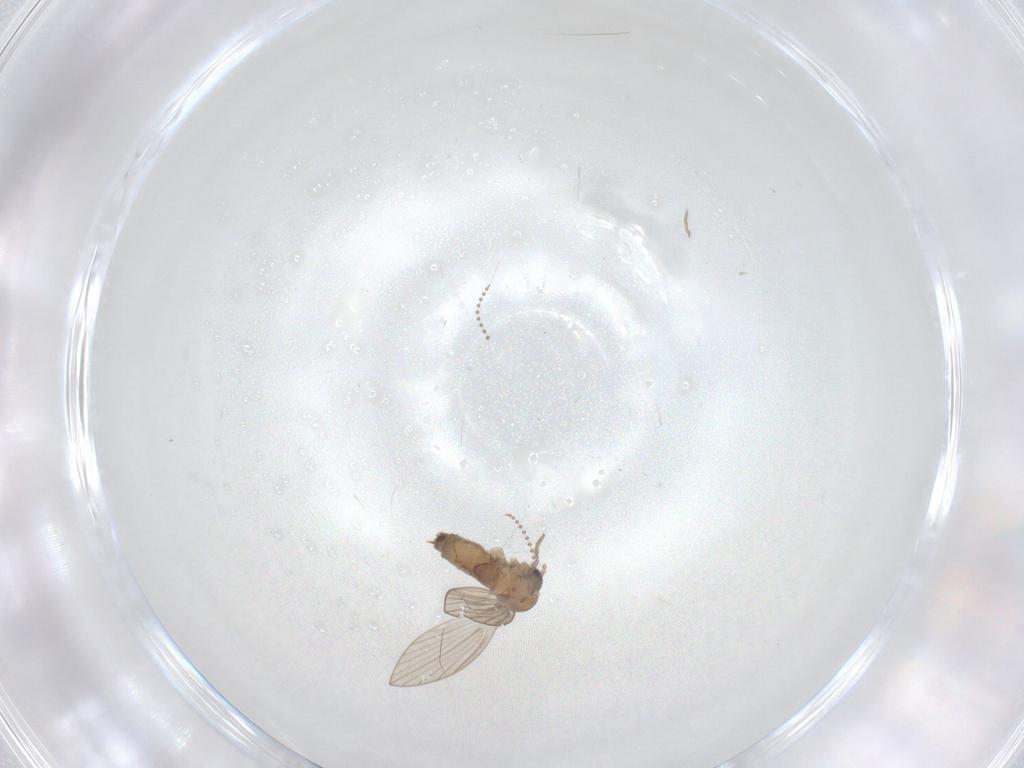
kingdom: Animalia
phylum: Arthropoda
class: Insecta
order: Diptera
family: Psychodidae
